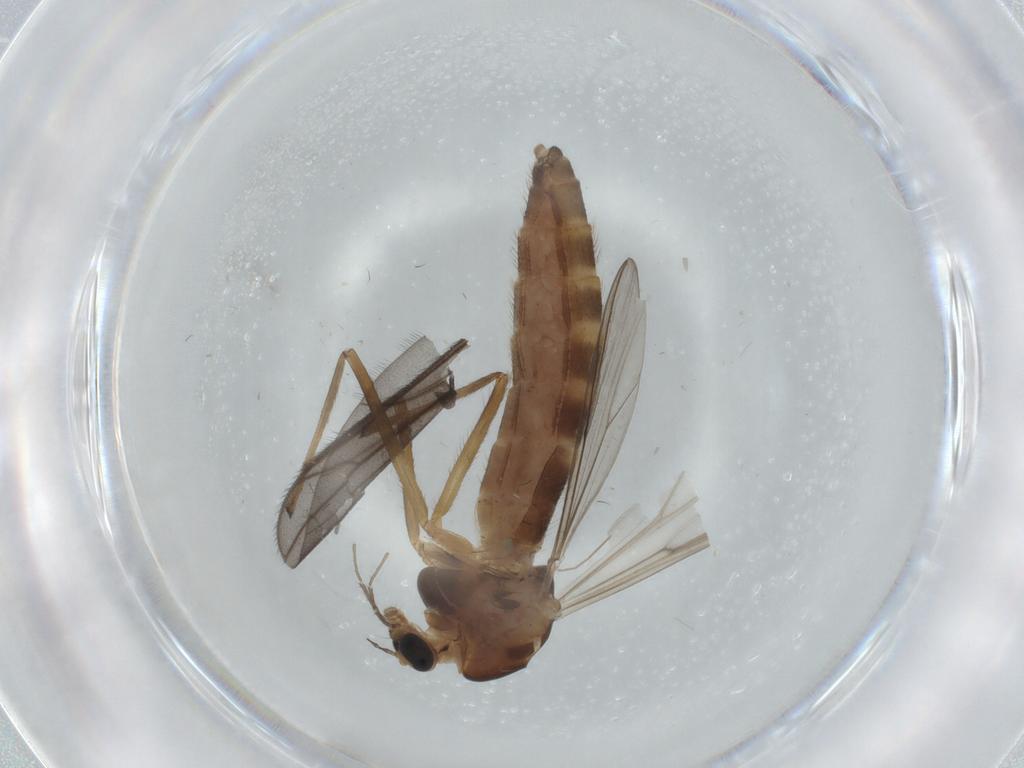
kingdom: Animalia
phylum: Arthropoda
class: Insecta
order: Diptera
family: Chironomidae
